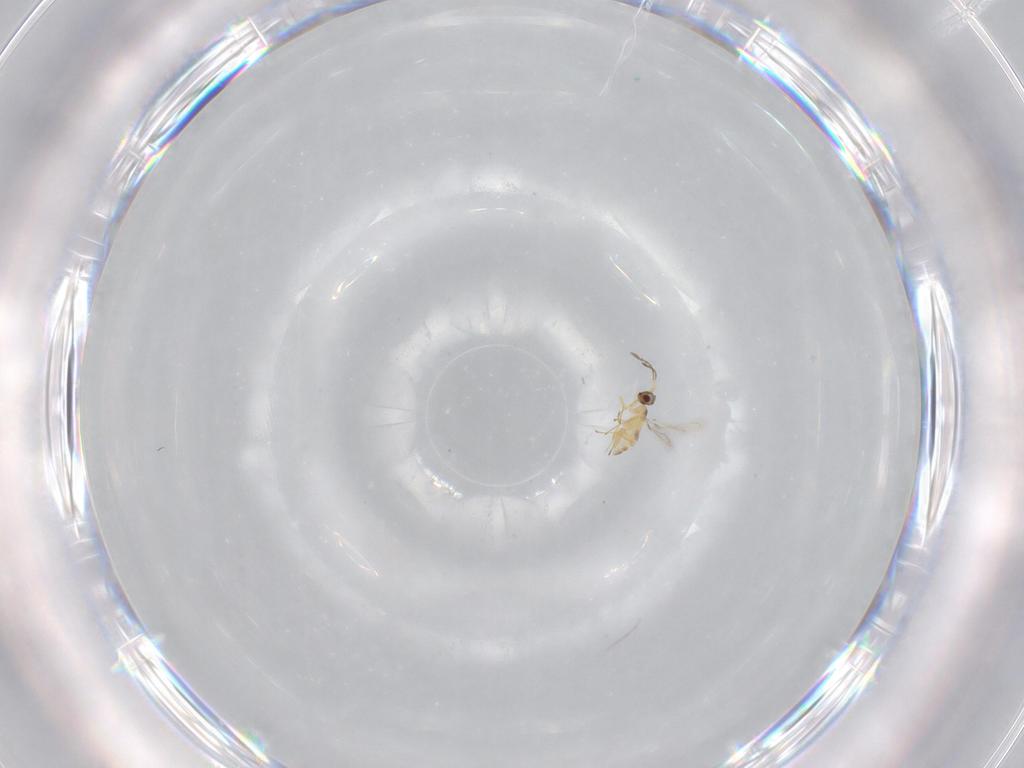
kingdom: Animalia
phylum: Arthropoda
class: Insecta
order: Hymenoptera
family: Mymaridae
